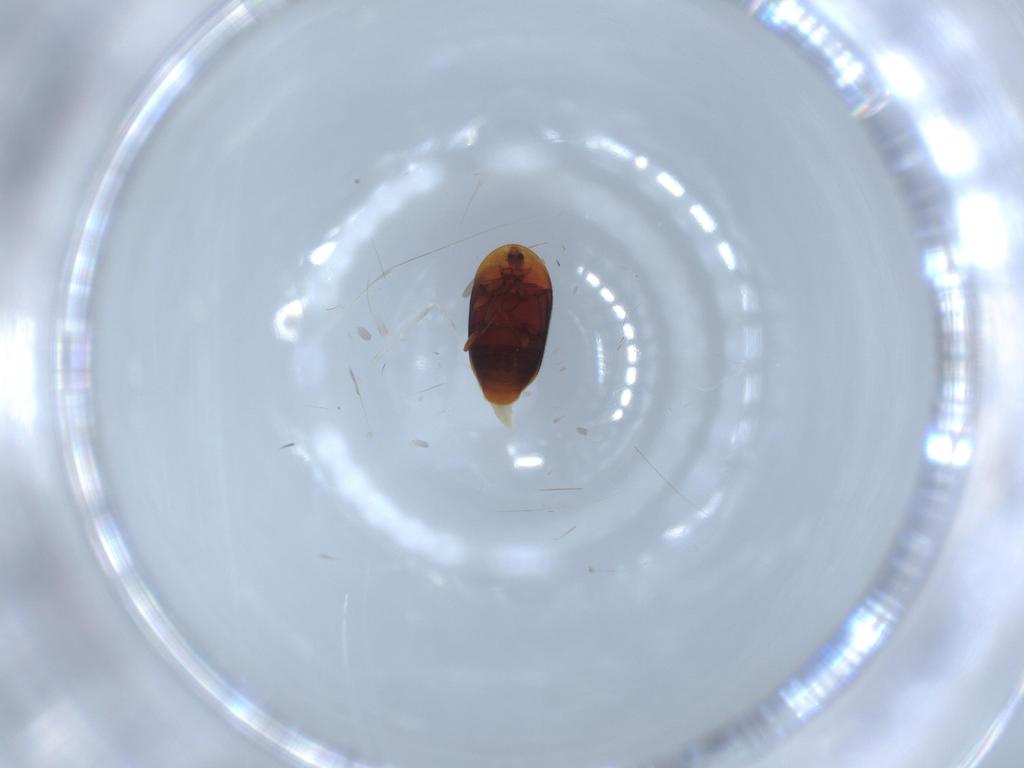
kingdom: Animalia
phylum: Arthropoda
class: Insecta
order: Coleoptera
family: Corylophidae
